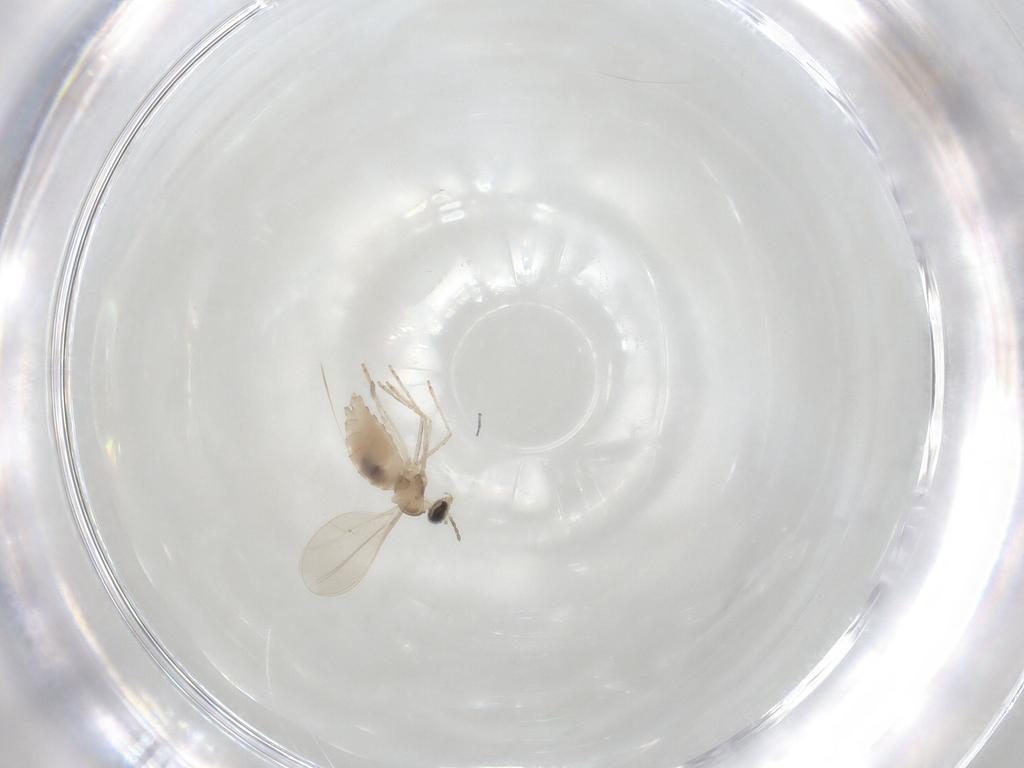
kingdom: Animalia
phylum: Arthropoda
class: Insecta
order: Diptera
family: Cecidomyiidae
